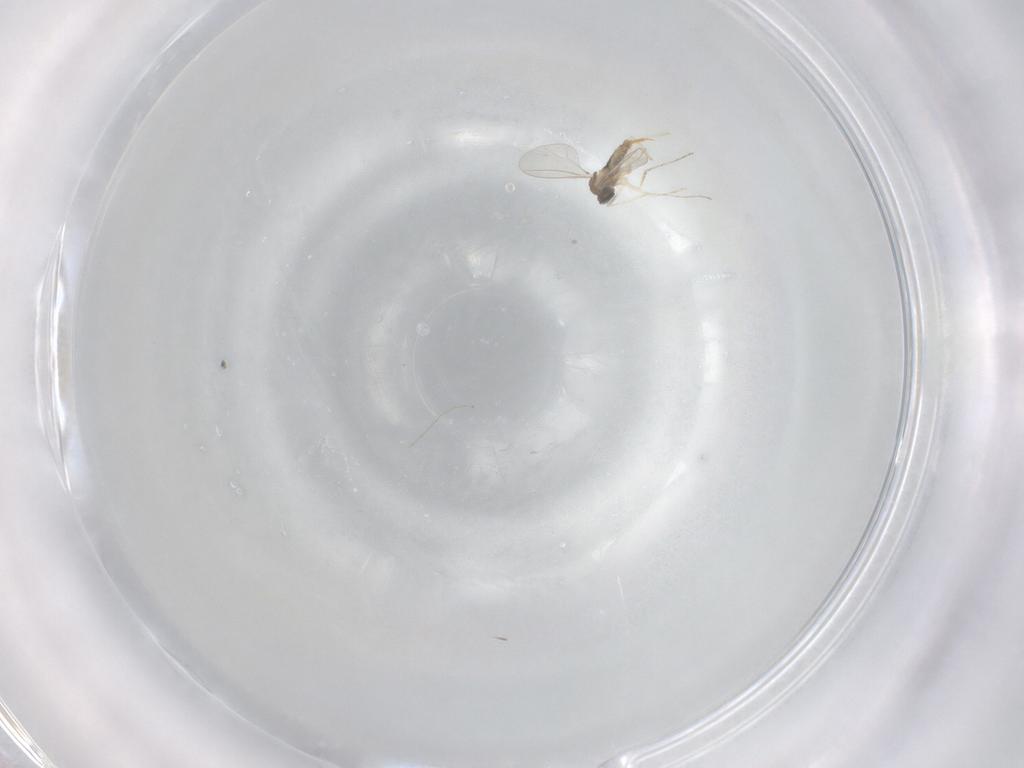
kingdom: Animalia
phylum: Arthropoda
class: Insecta
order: Diptera
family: Cecidomyiidae
